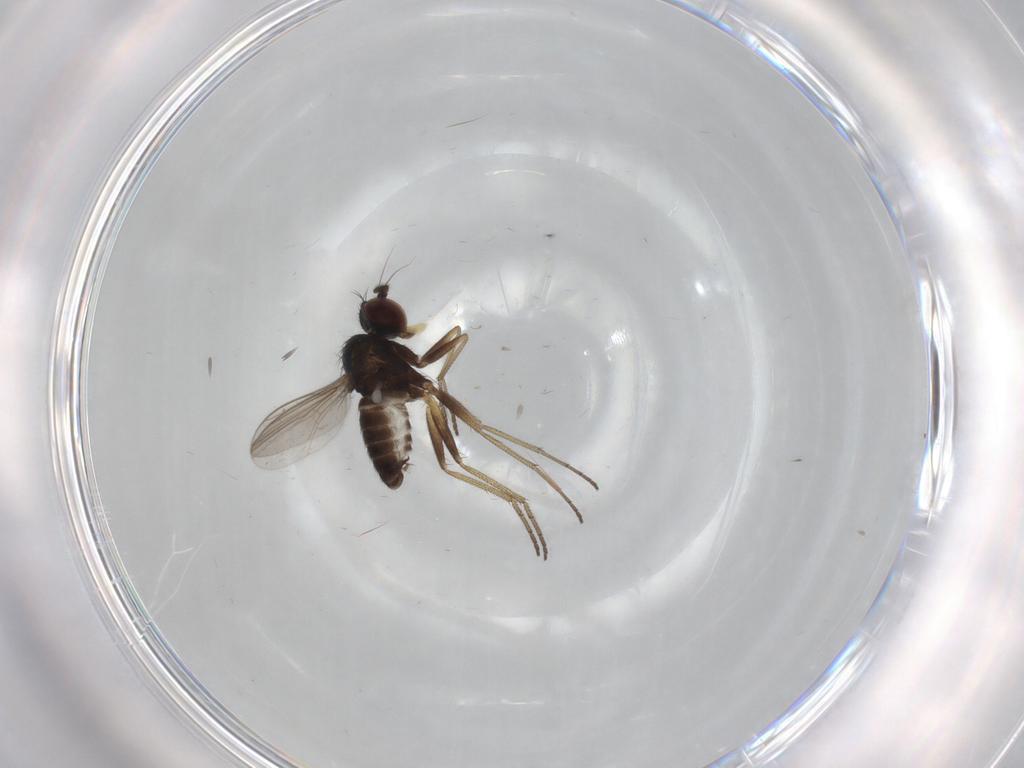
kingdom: Animalia
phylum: Arthropoda
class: Insecta
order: Diptera
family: Dolichopodidae
